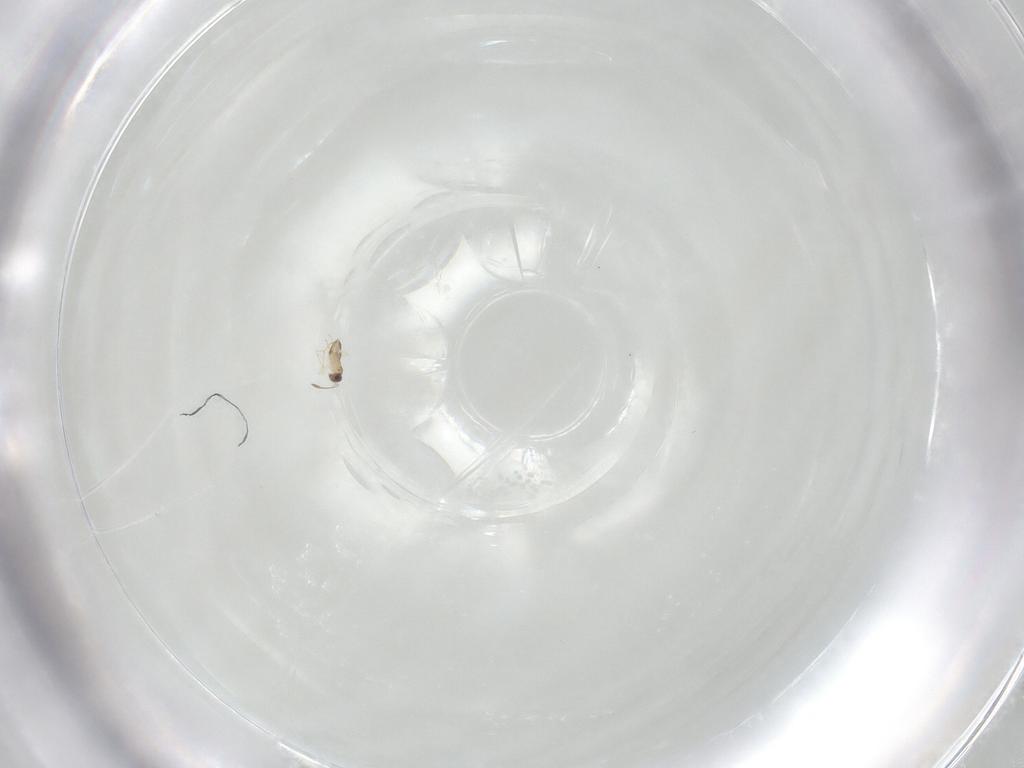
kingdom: Animalia
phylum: Arthropoda
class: Insecta
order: Hymenoptera
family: Mymaridae
